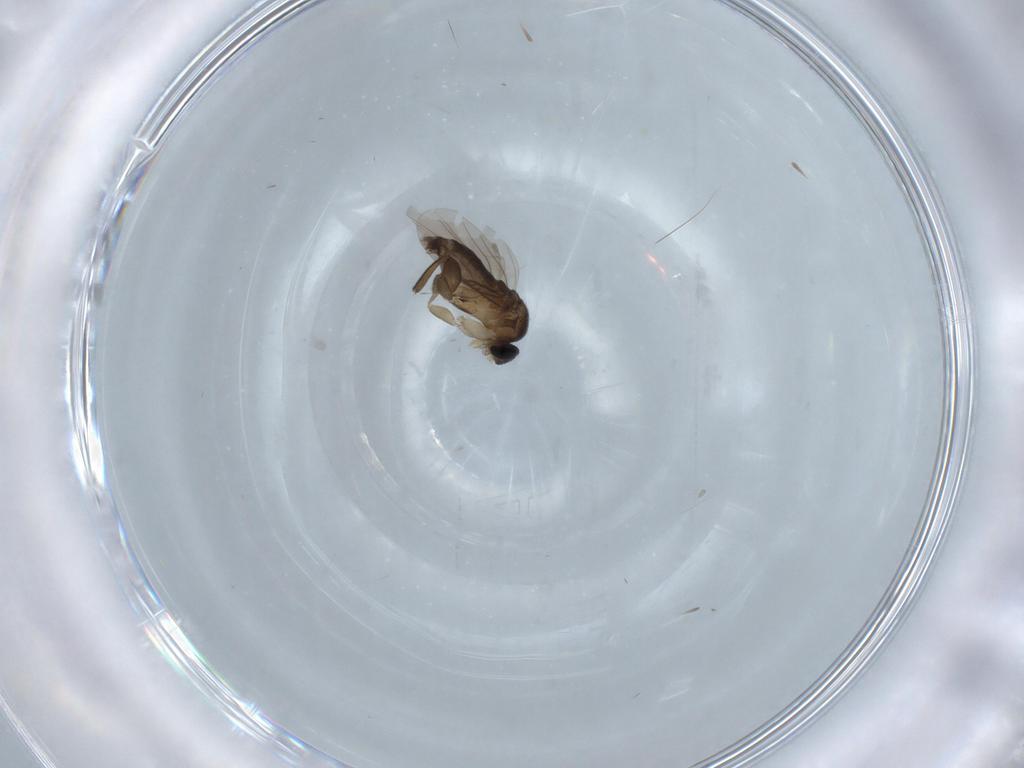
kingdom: Animalia
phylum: Arthropoda
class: Insecta
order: Diptera
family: Phoridae
